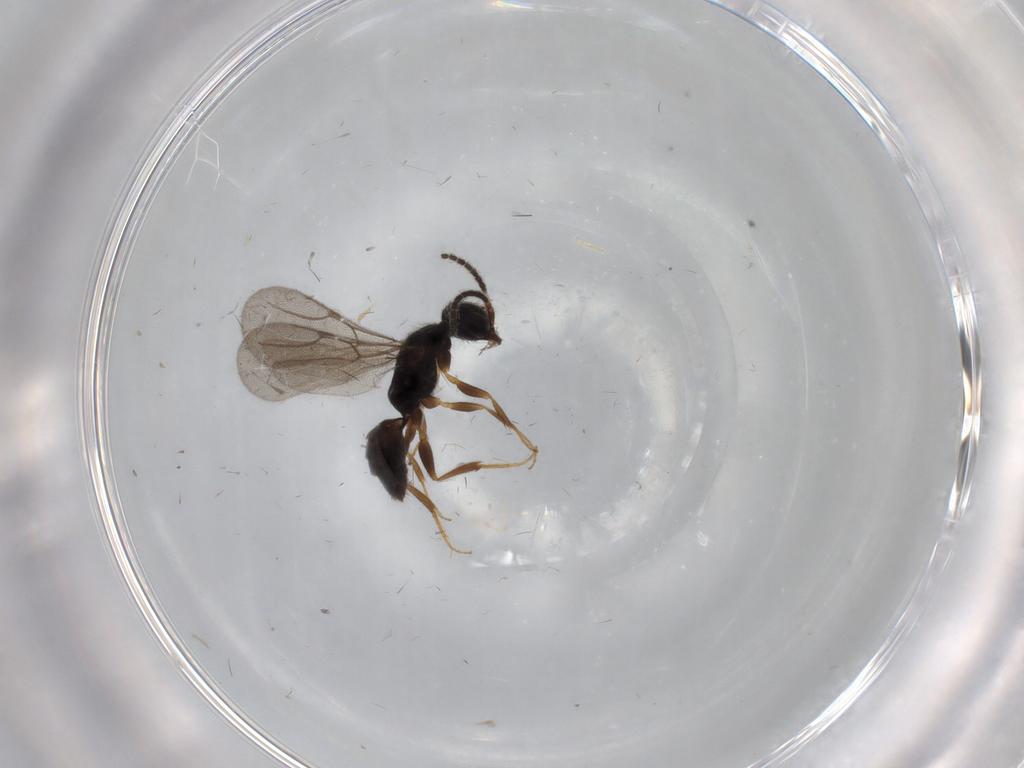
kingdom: Animalia
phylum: Arthropoda
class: Insecta
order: Hymenoptera
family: Bethylidae
